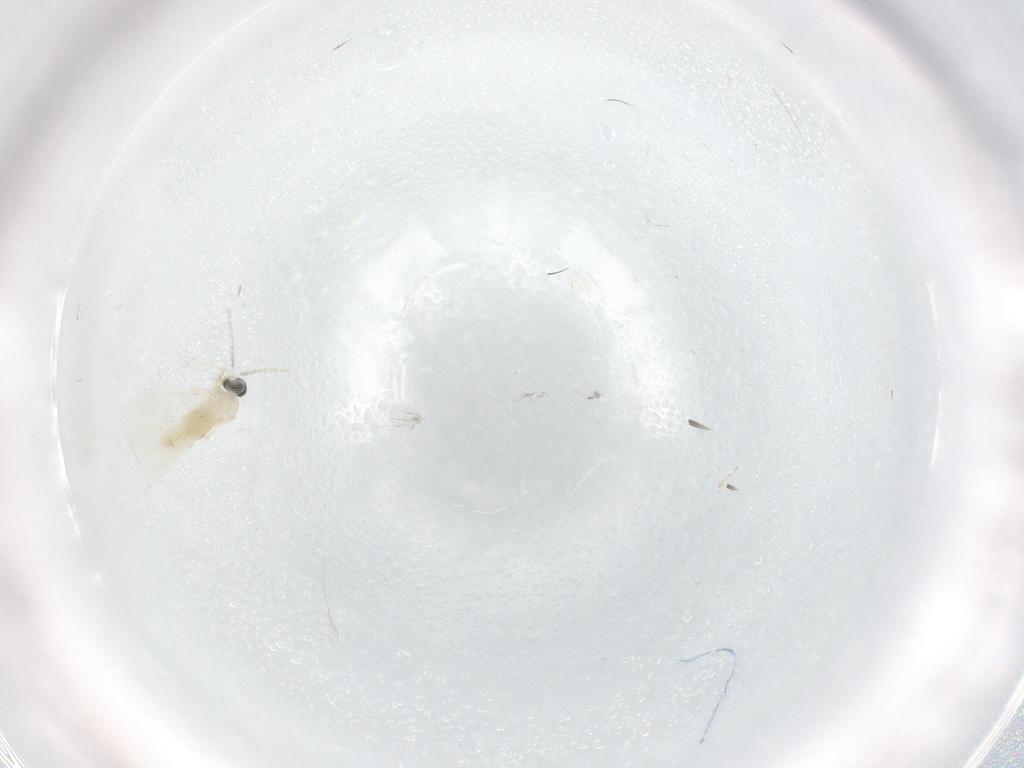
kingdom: Animalia
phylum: Arthropoda
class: Insecta
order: Diptera
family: Cecidomyiidae
